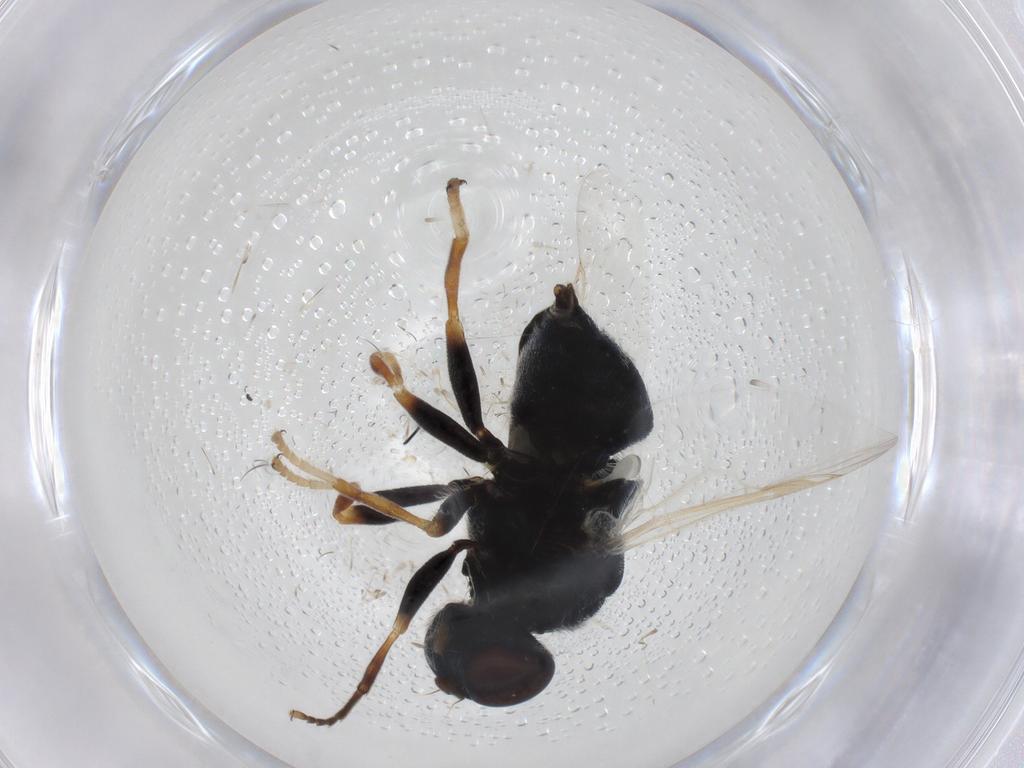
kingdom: Animalia
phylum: Arthropoda
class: Insecta
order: Diptera
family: Stratiomyidae
